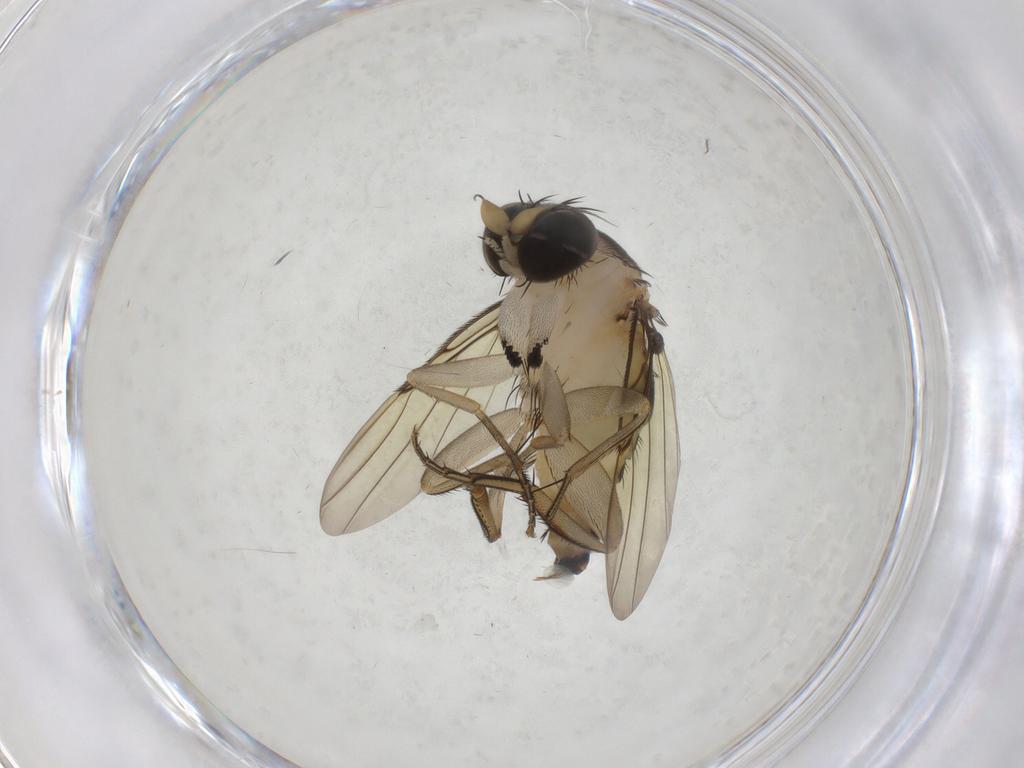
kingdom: Animalia
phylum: Arthropoda
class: Insecta
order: Diptera
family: Phoridae
